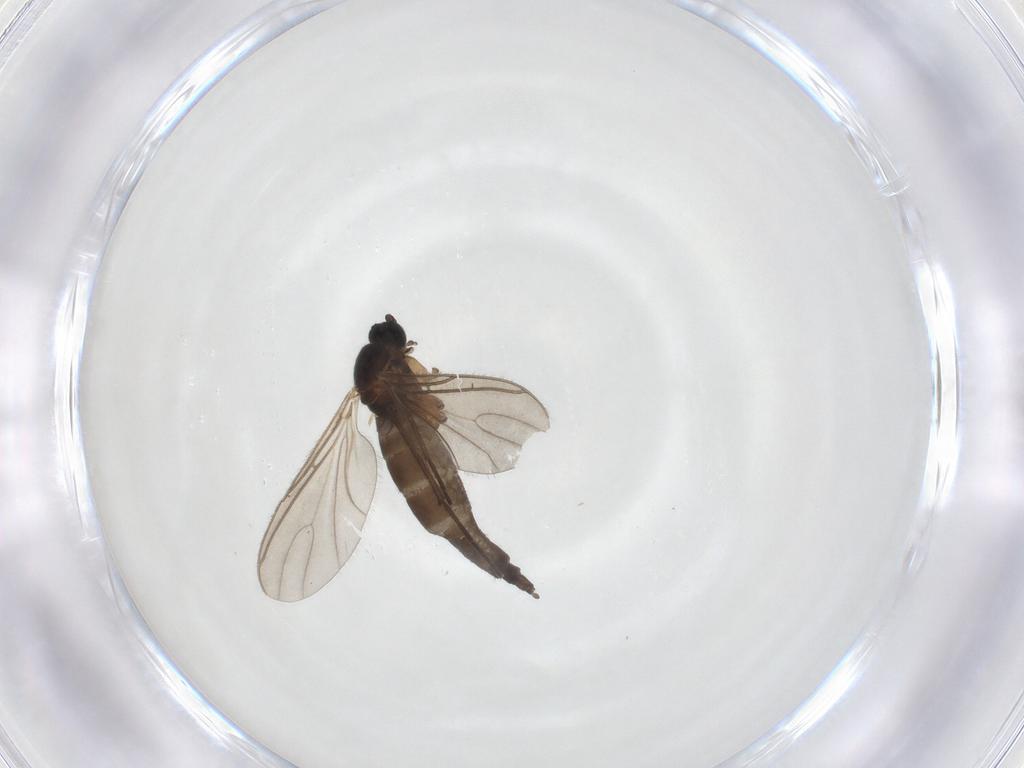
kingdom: Animalia
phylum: Arthropoda
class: Insecta
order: Diptera
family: Sciaridae
